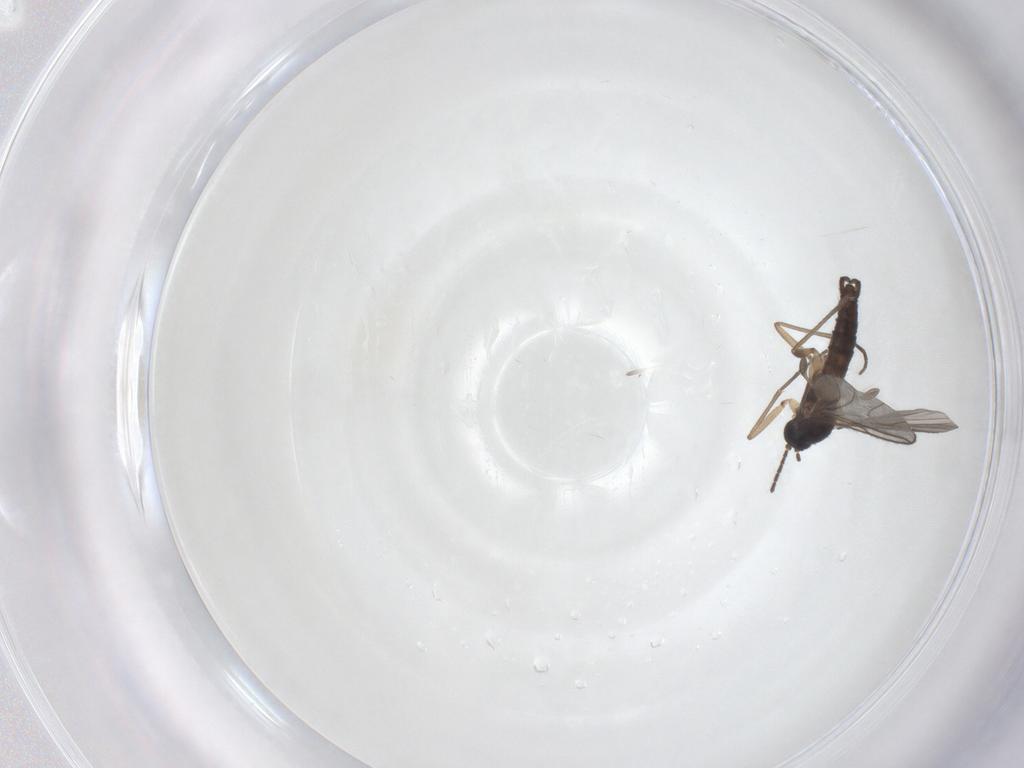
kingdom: Animalia
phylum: Arthropoda
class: Insecta
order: Diptera
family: Sciaridae
